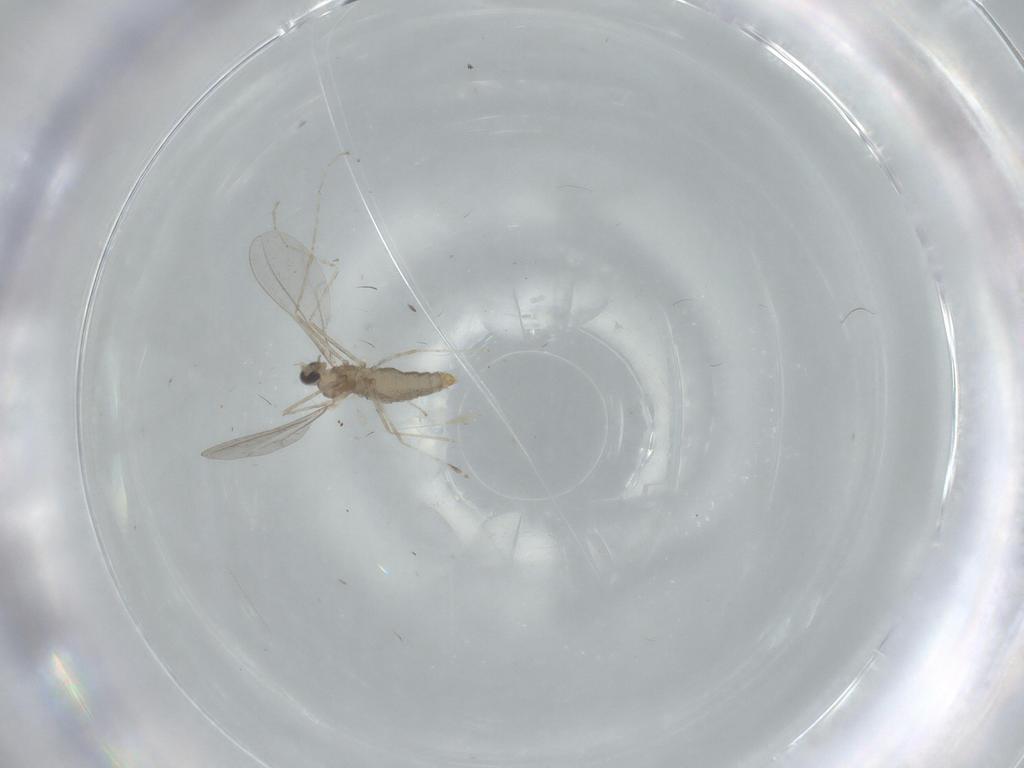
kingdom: Animalia
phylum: Arthropoda
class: Insecta
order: Diptera
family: Cecidomyiidae
